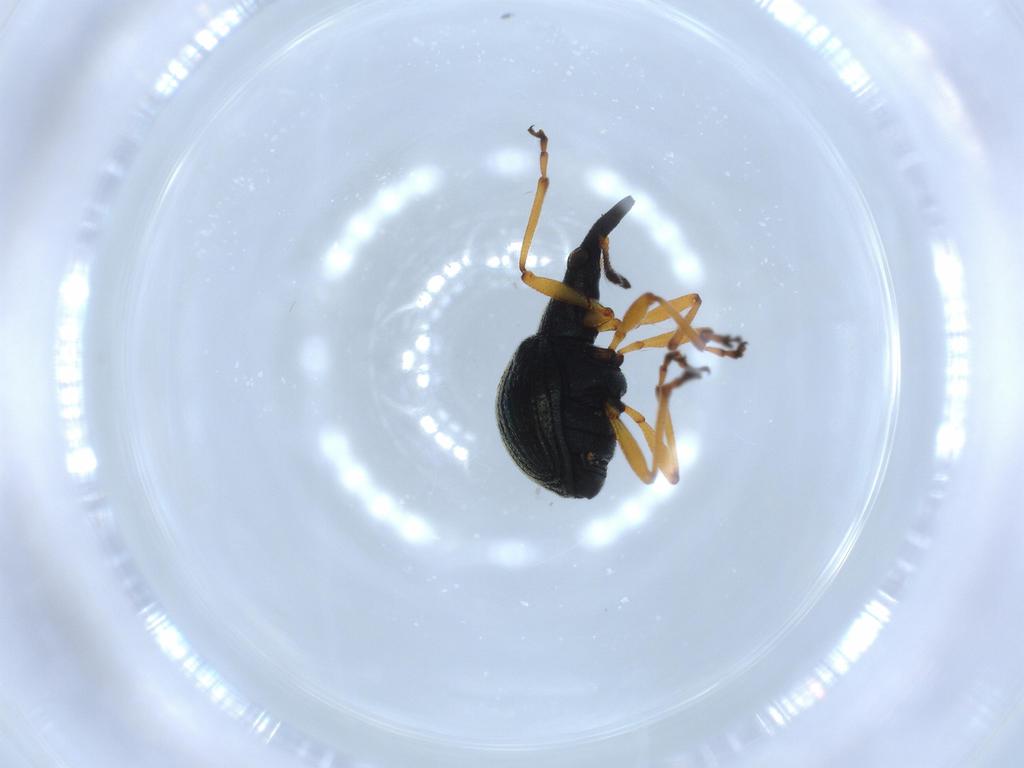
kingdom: Animalia
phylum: Arthropoda
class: Insecta
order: Coleoptera
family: Brentidae
